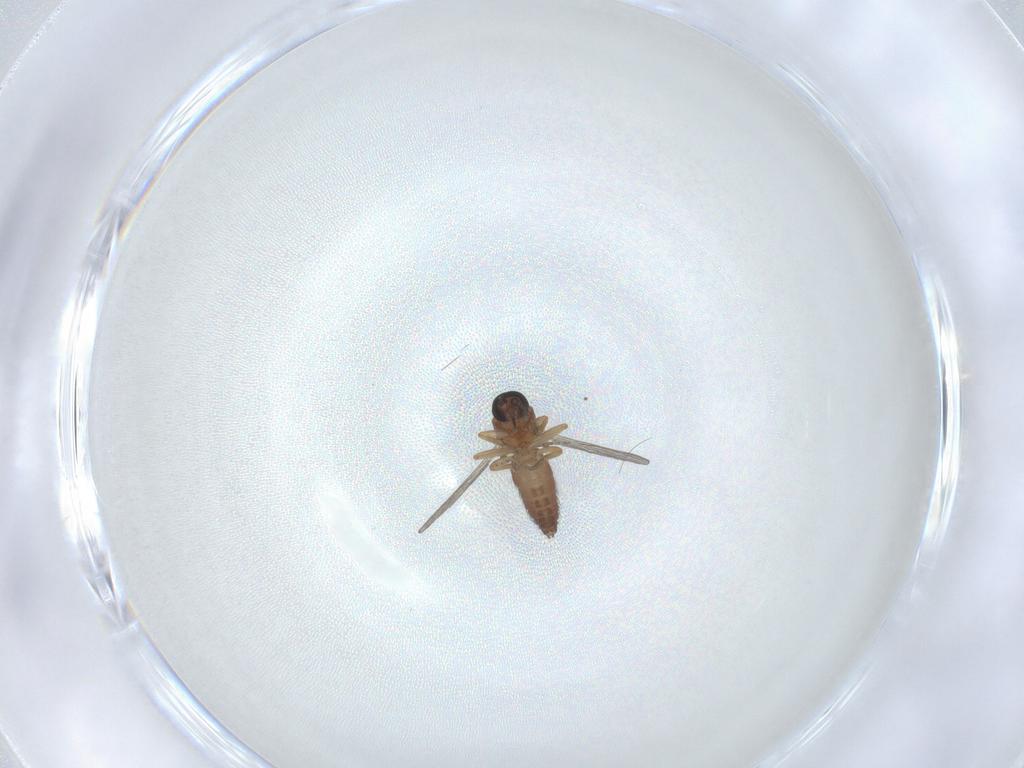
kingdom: Animalia
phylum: Arthropoda
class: Insecta
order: Diptera
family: Ceratopogonidae
